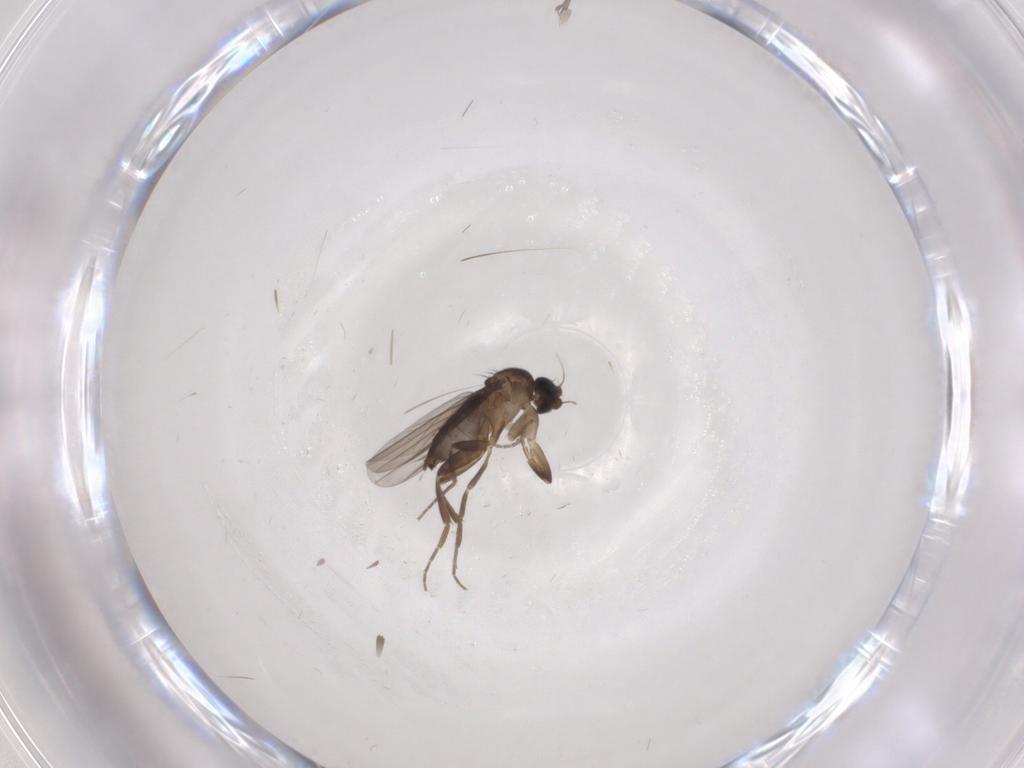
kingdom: Animalia
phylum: Arthropoda
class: Insecta
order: Diptera
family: Phoridae
